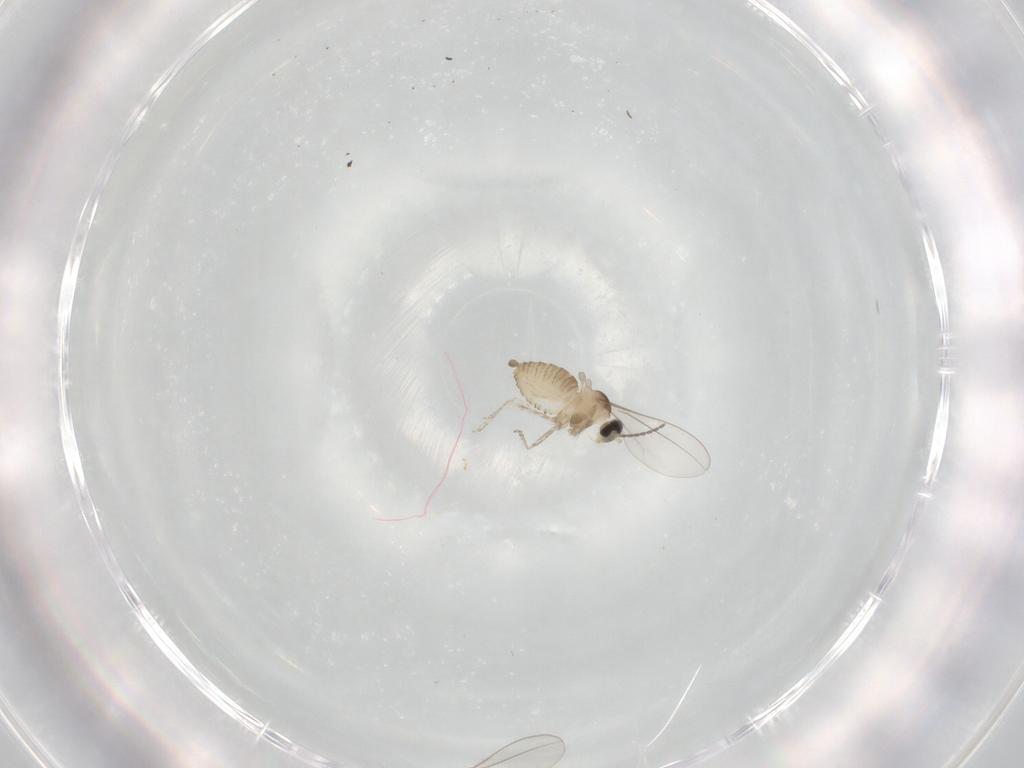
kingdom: Animalia
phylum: Arthropoda
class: Insecta
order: Diptera
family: Cecidomyiidae
